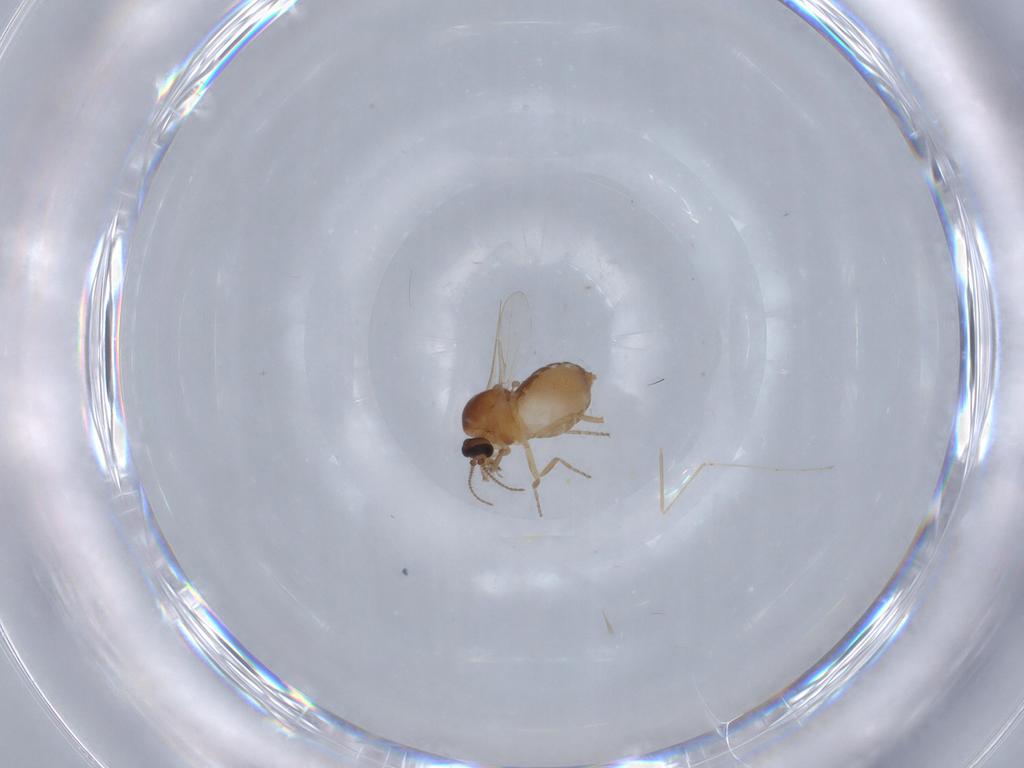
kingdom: Animalia
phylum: Arthropoda
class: Insecta
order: Diptera
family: Ceratopogonidae
